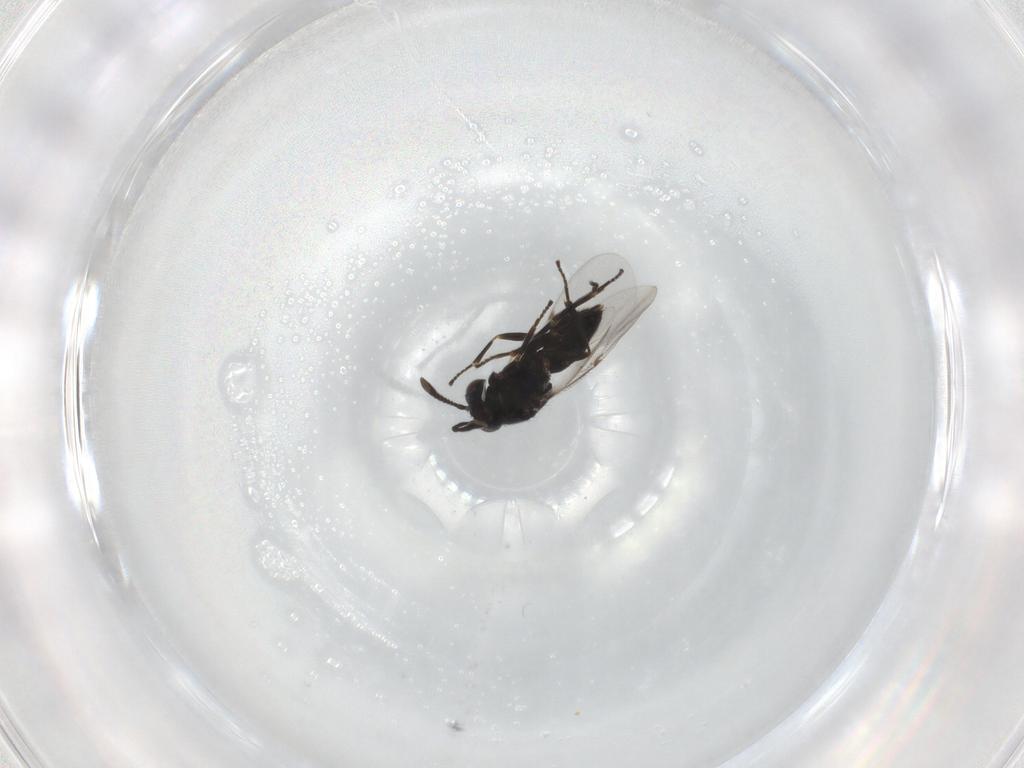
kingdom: Animalia
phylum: Arthropoda
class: Insecta
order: Hymenoptera
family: Encyrtidae
